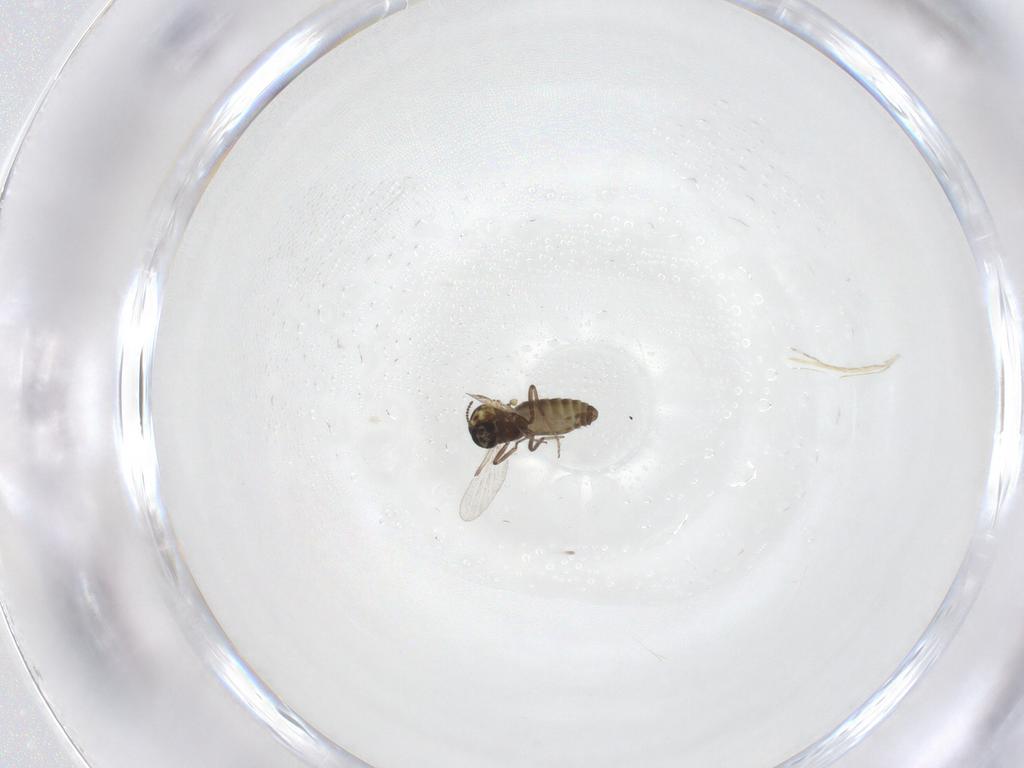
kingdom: Animalia
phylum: Arthropoda
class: Insecta
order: Diptera
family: Ceratopogonidae
